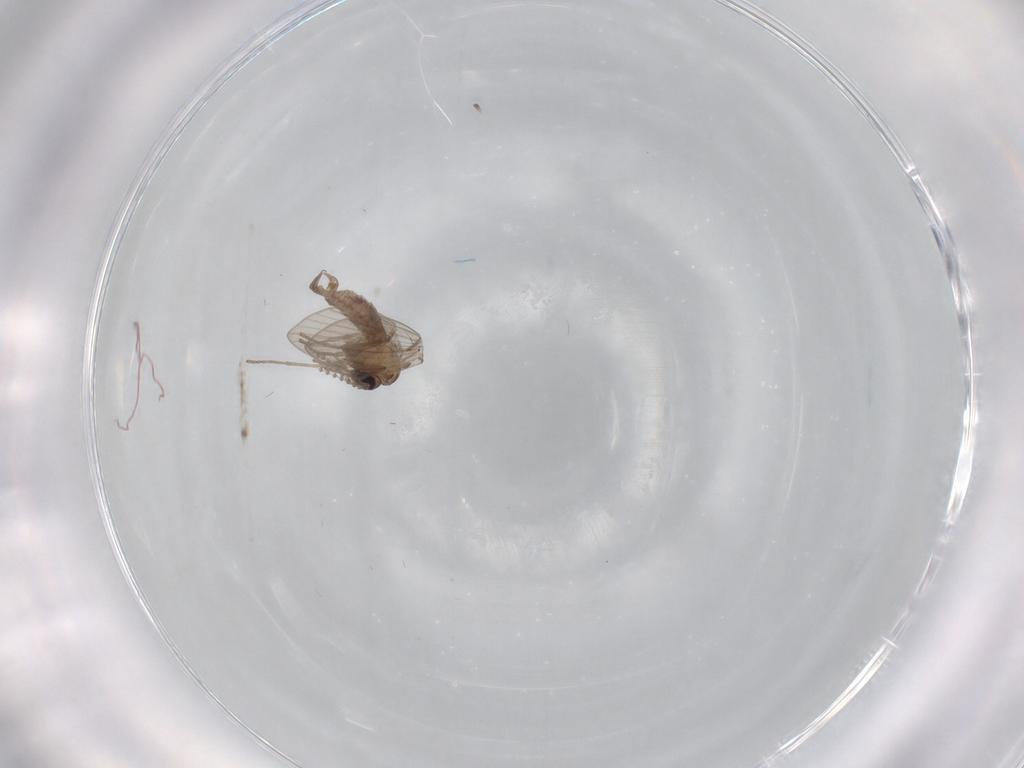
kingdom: Animalia
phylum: Arthropoda
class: Insecta
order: Diptera
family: Psychodidae
